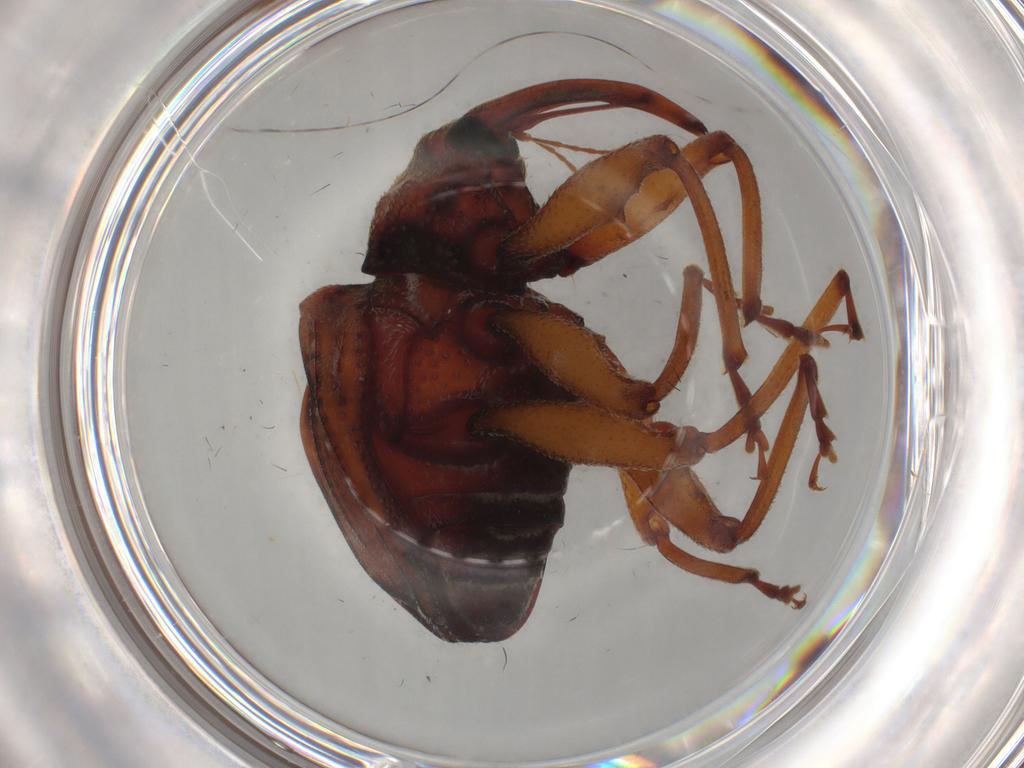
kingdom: Animalia
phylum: Arthropoda
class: Insecta
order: Coleoptera
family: Curculionidae
